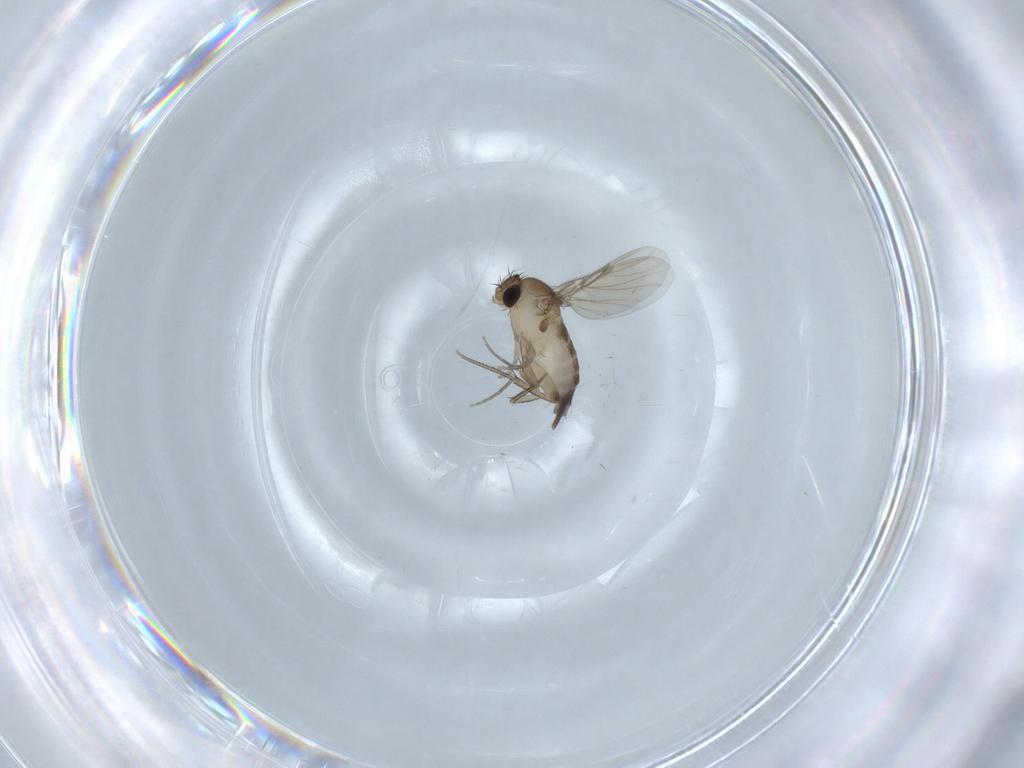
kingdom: Animalia
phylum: Arthropoda
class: Insecta
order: Diptera
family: Phoridae
